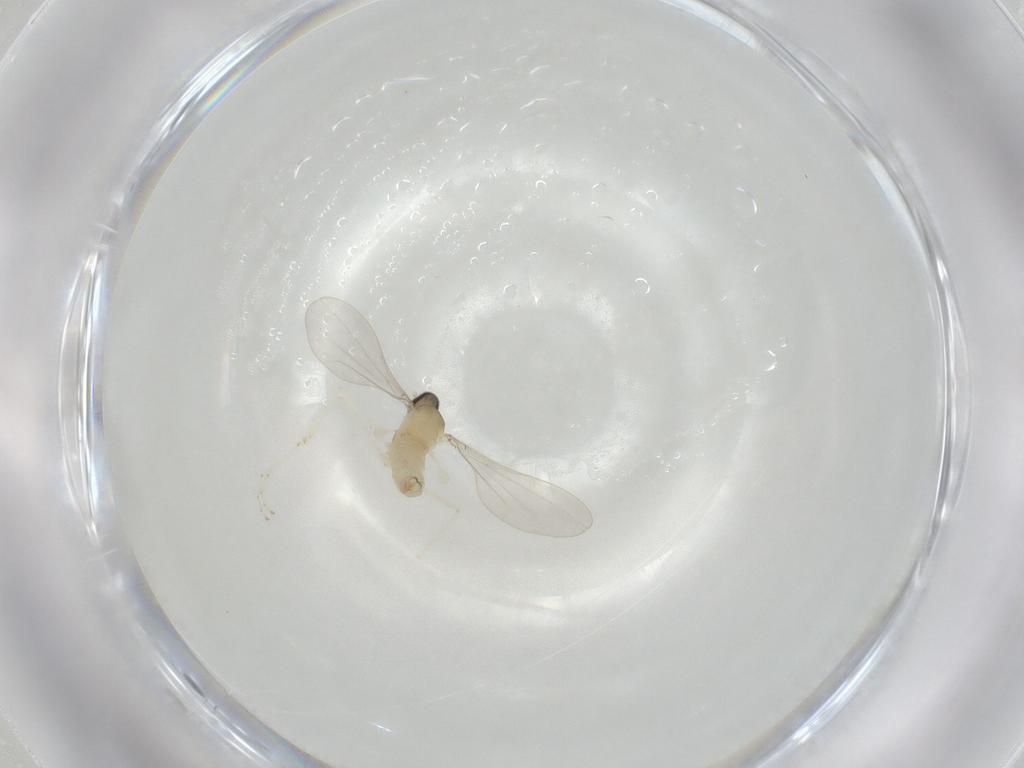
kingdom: Animalia
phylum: Arthropoda
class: Insecta
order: Diptera
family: Cecidomyiidae
